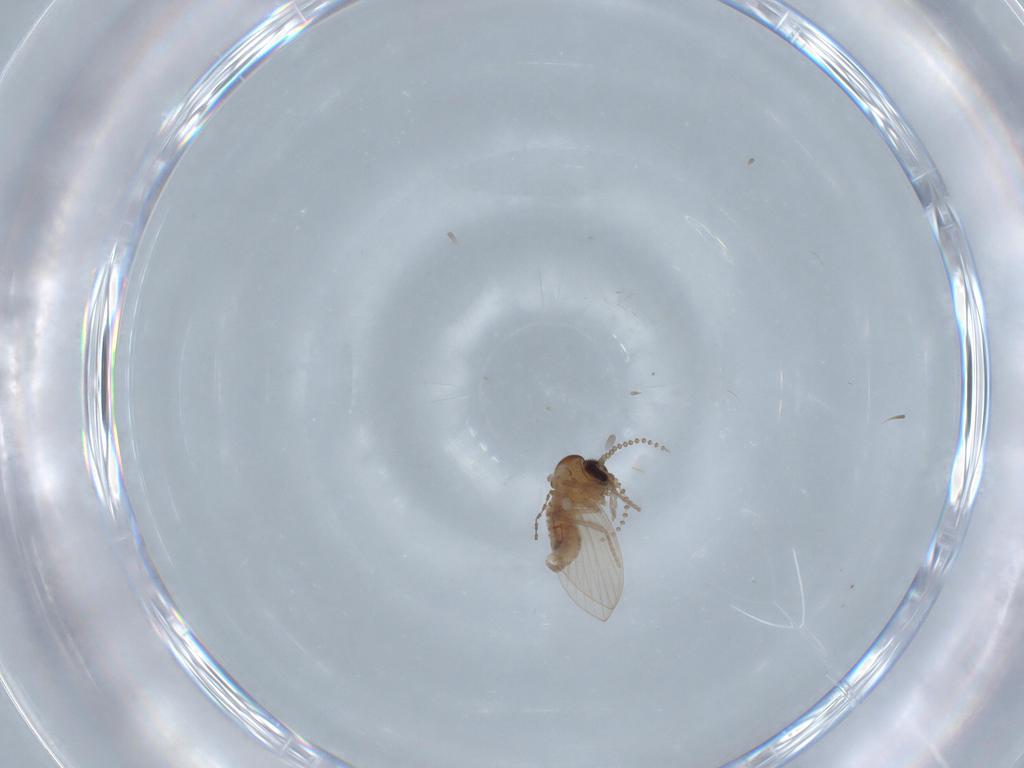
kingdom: Animalia
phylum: Arthropoda
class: Insecta
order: Diptera
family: Psychodidae
